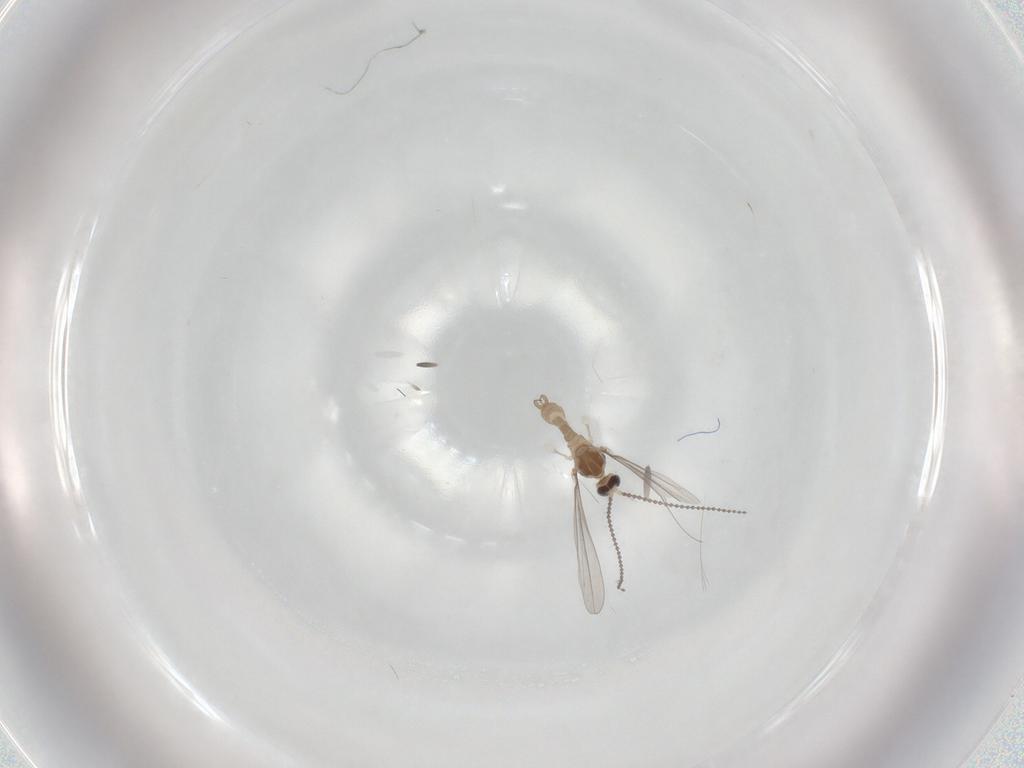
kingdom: Animalia
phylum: Arthropoda
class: Insecta
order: Diptera
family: Cecidomyiidae
